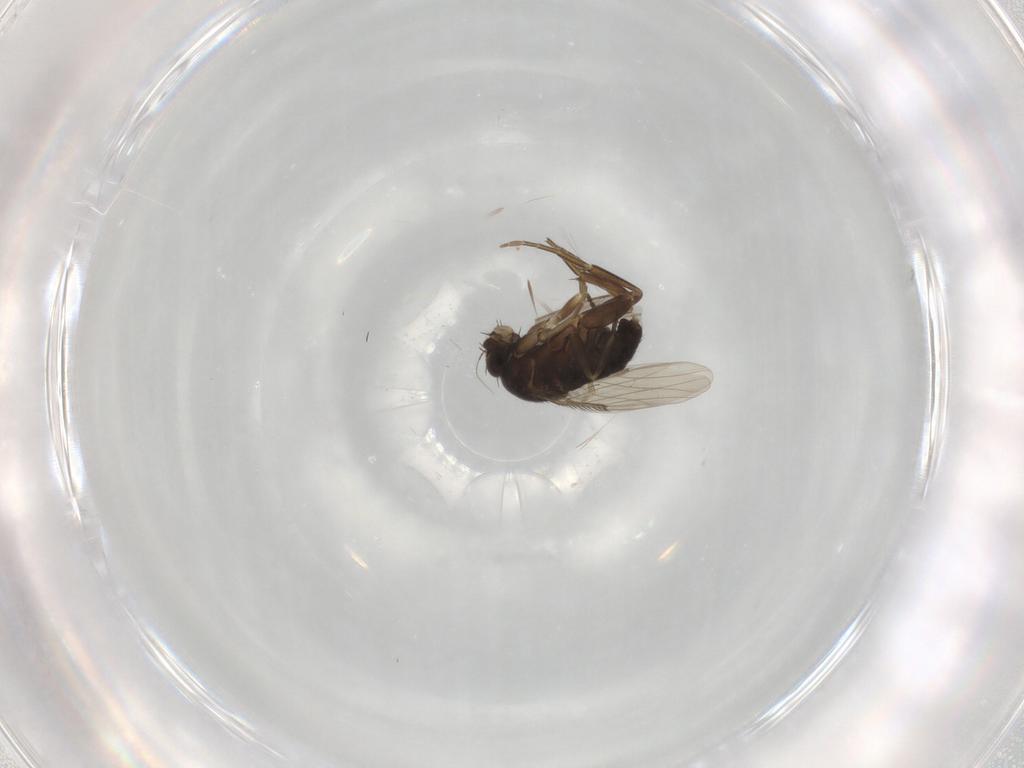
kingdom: Animalia
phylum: Arthropoda
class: Insecta
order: Diptera
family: Phoridae
